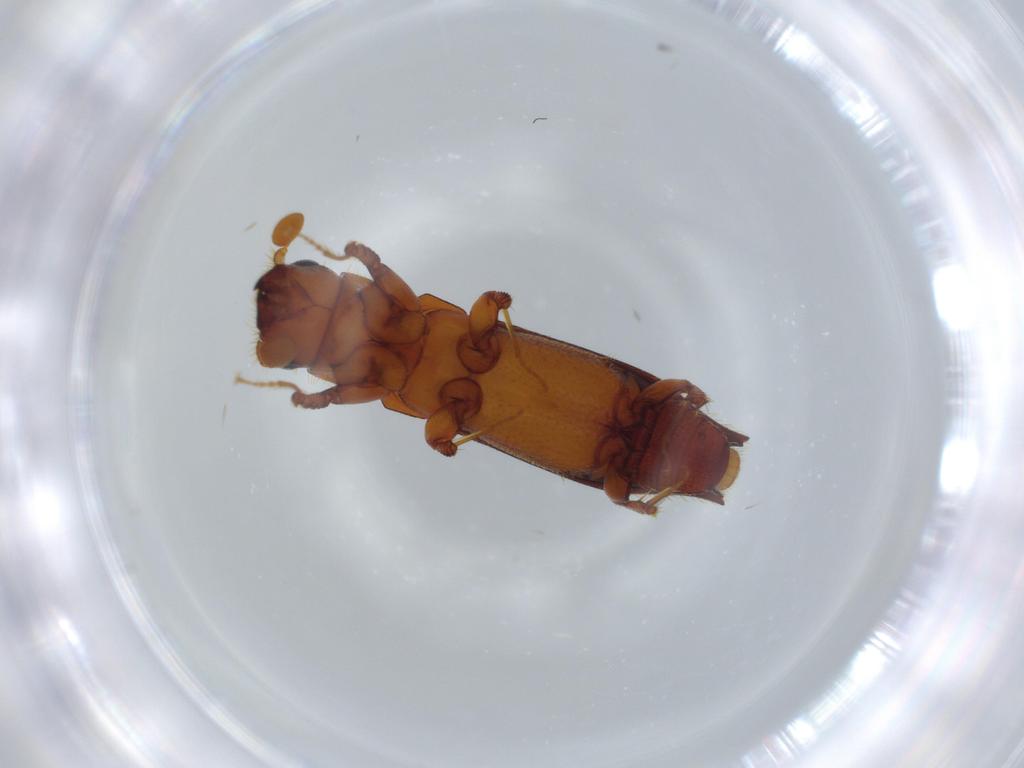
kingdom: Animalia
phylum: Arthropoda
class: Insecta
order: Coleoptera
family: Curculionidae
